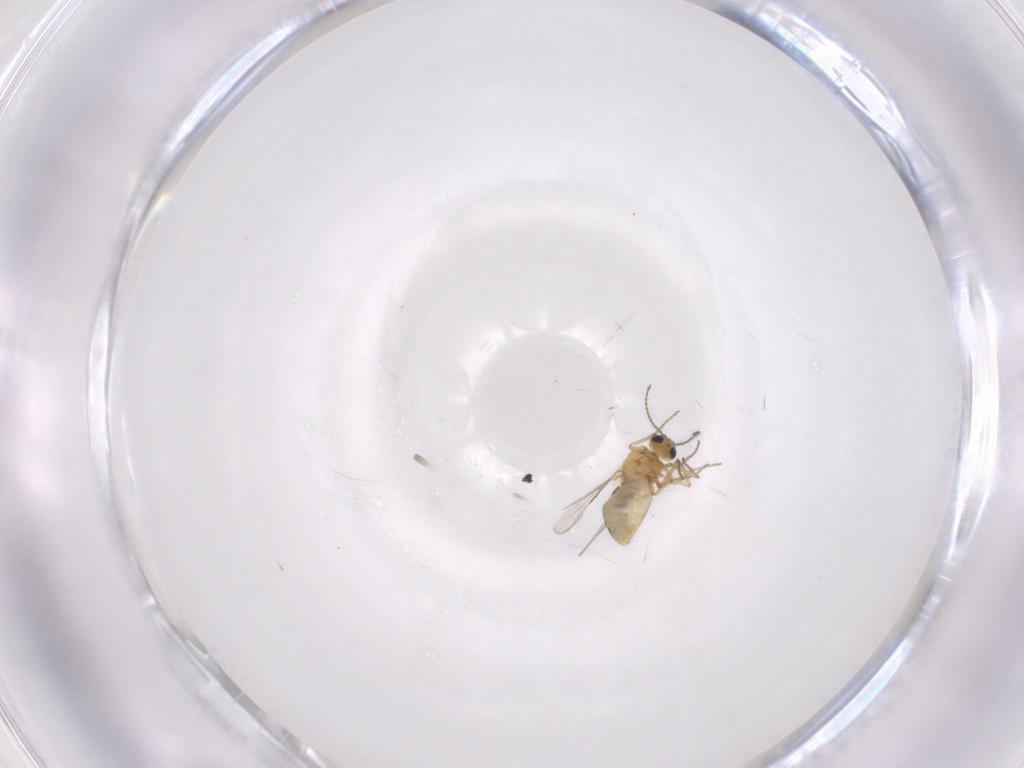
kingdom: Animalia
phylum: Arthropoda
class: Insecta
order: Diptera
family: Ceratopogonidae
